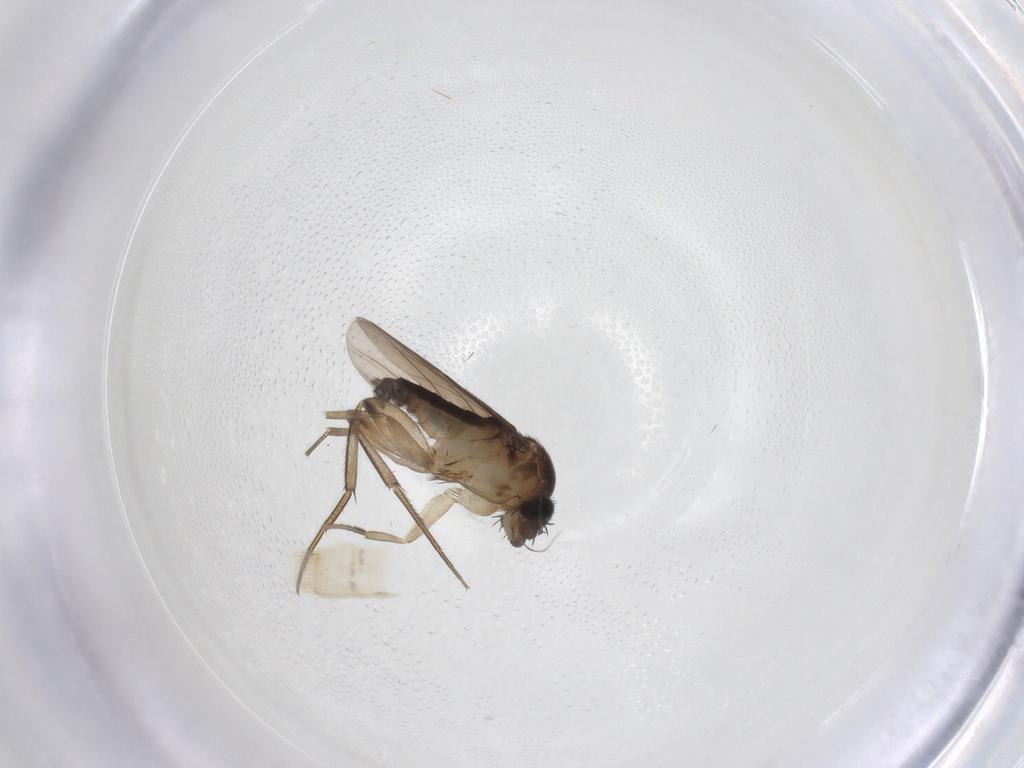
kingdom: Animalia
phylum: Arthropoda
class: Insecta
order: Diptera
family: Phoridae
